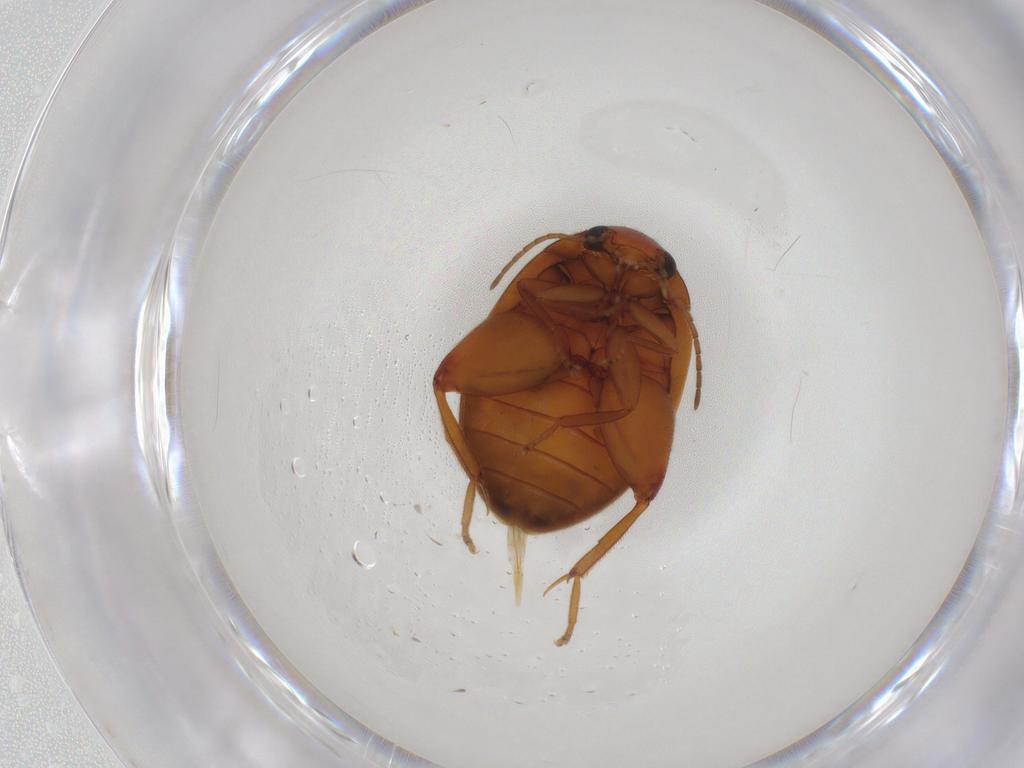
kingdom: Animalia
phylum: Arthropoda
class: Insecta
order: Coleoptera
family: Scirtidae
